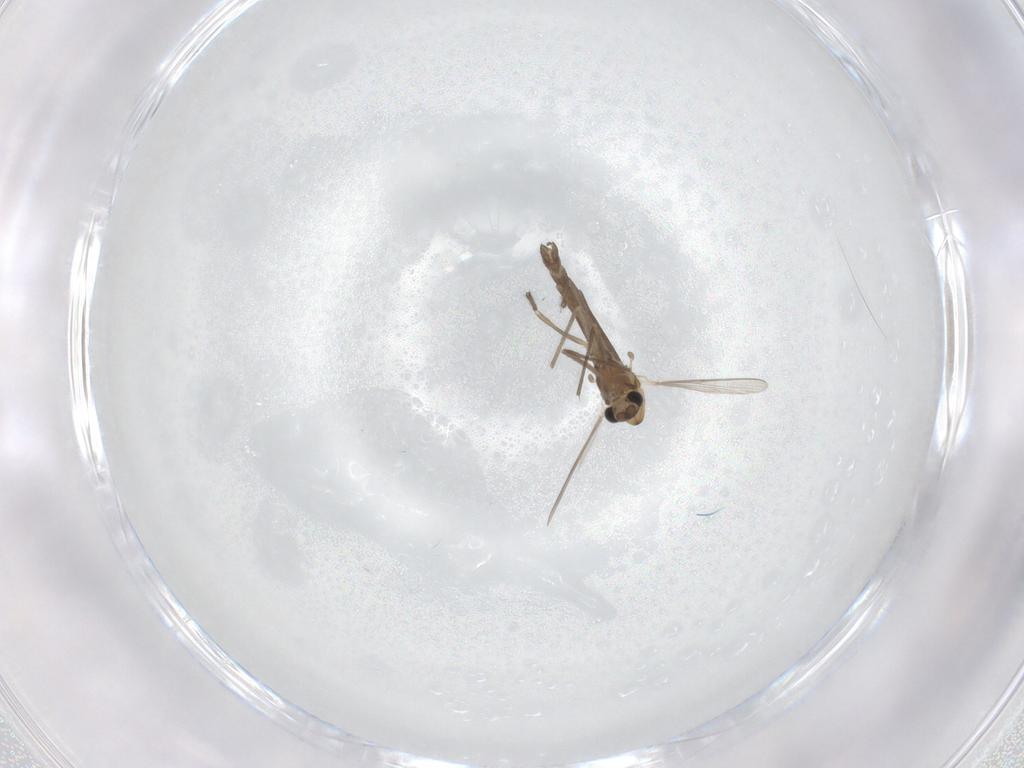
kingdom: Animalia
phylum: Arthropoda
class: Insecta
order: Diptera
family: Chironomidae
